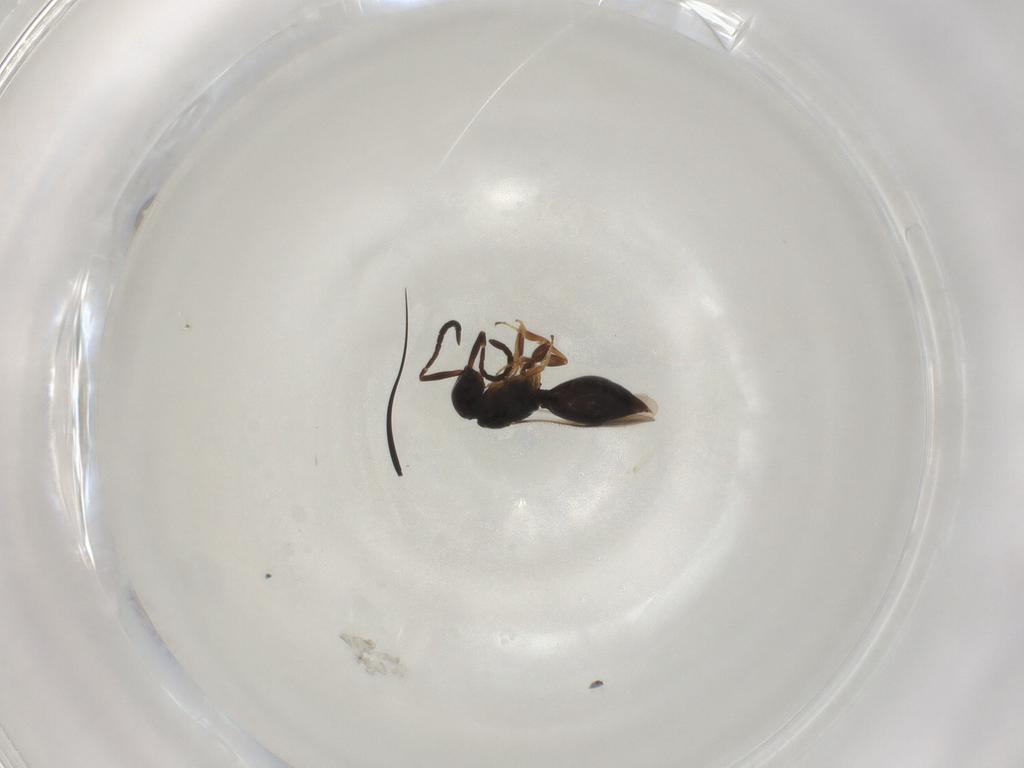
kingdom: Animalia
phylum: Arthropoda
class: Insecta
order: Hymenoptera
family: Megaspilidae
